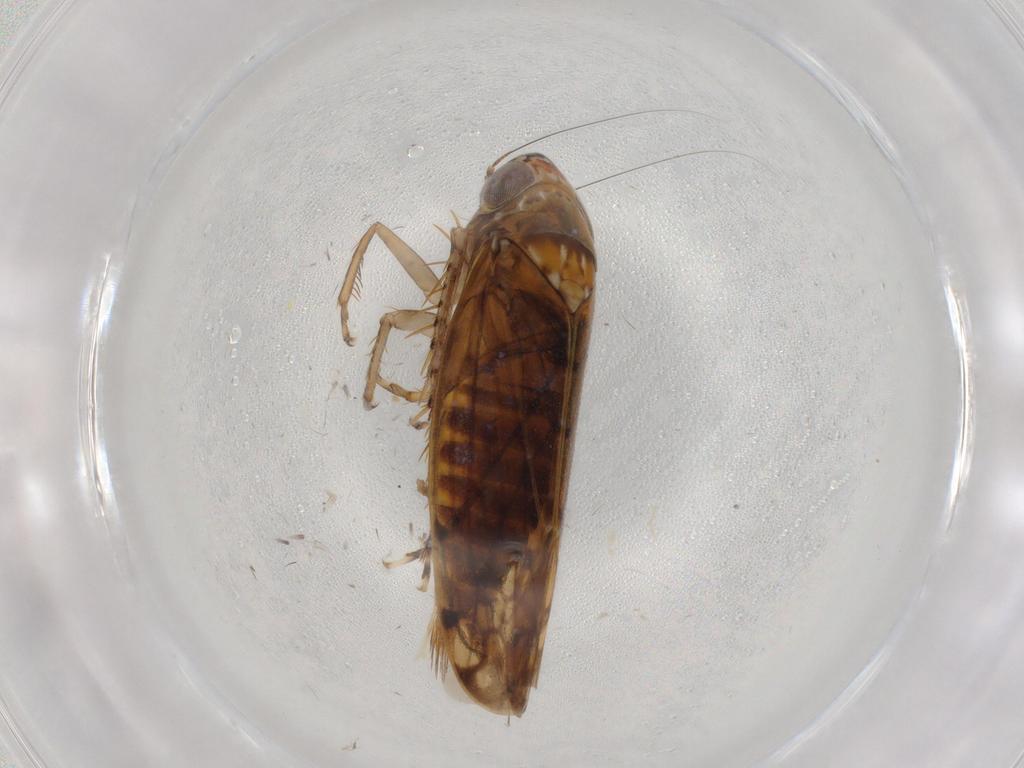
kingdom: Animalia
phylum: Arthropoda
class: Insecta
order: Hemiptera
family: Cicadellidae
